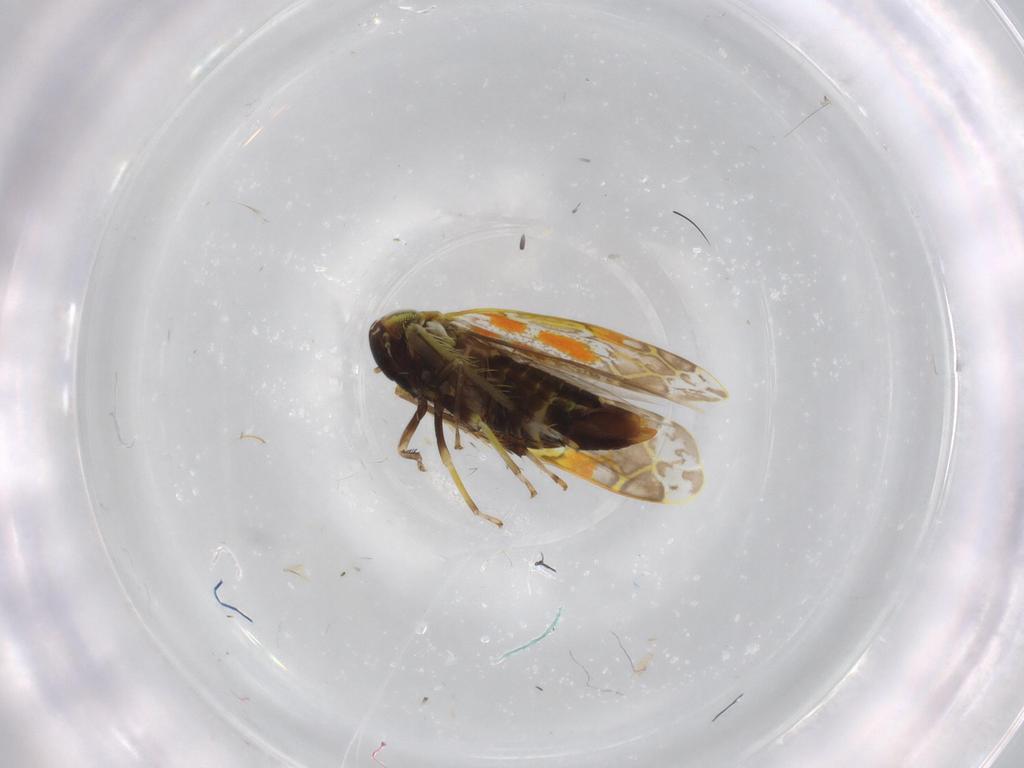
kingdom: Animalia
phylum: Arthropoda
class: Insecta
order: Hemiptera
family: Cicadellidae
